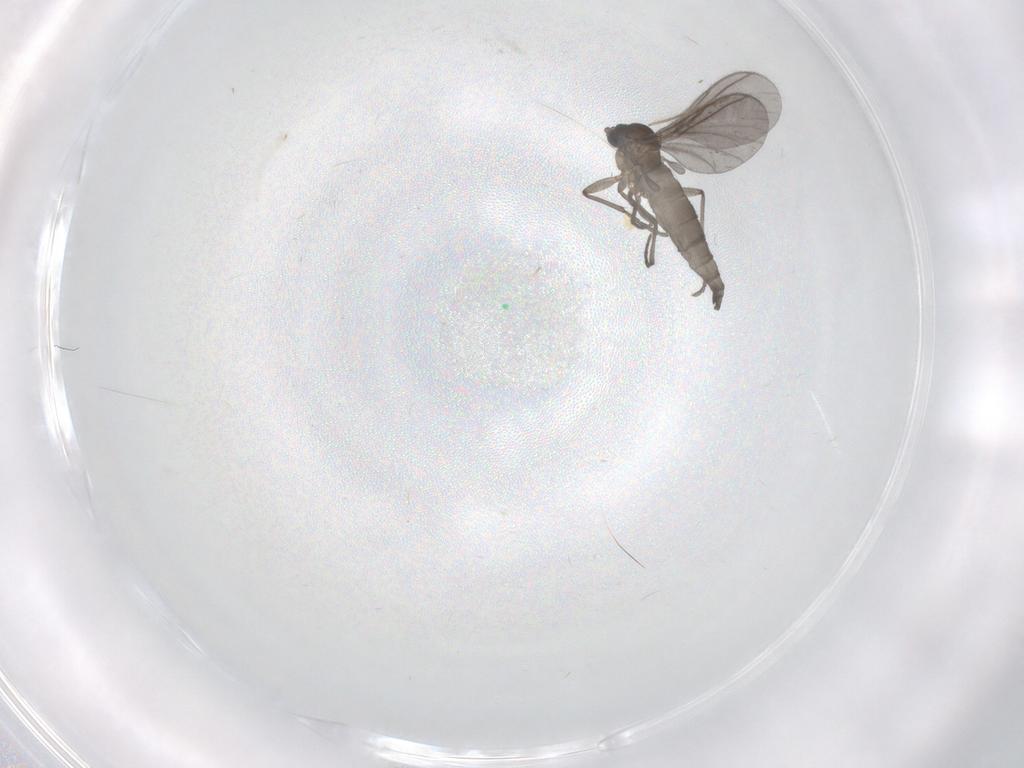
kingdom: Animalia
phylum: Arthropoda
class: Insecta
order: Diptera
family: Sciaridae
